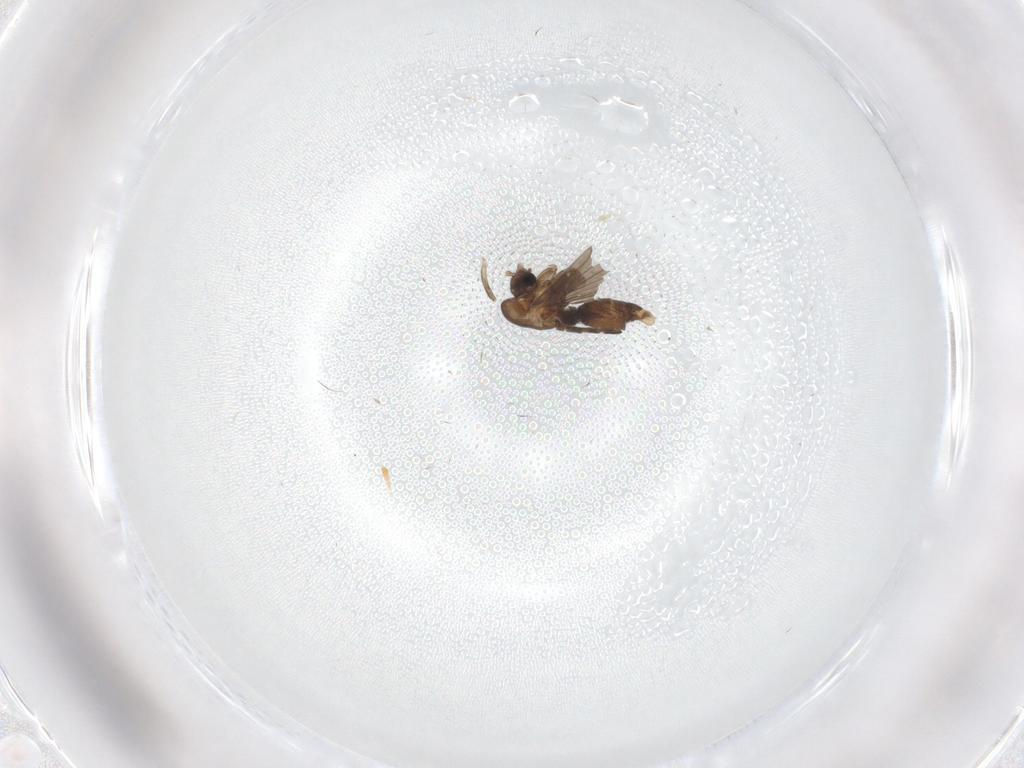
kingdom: Animalia
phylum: Arthropoda
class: Insecta
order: Diptera
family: Psychodidae
